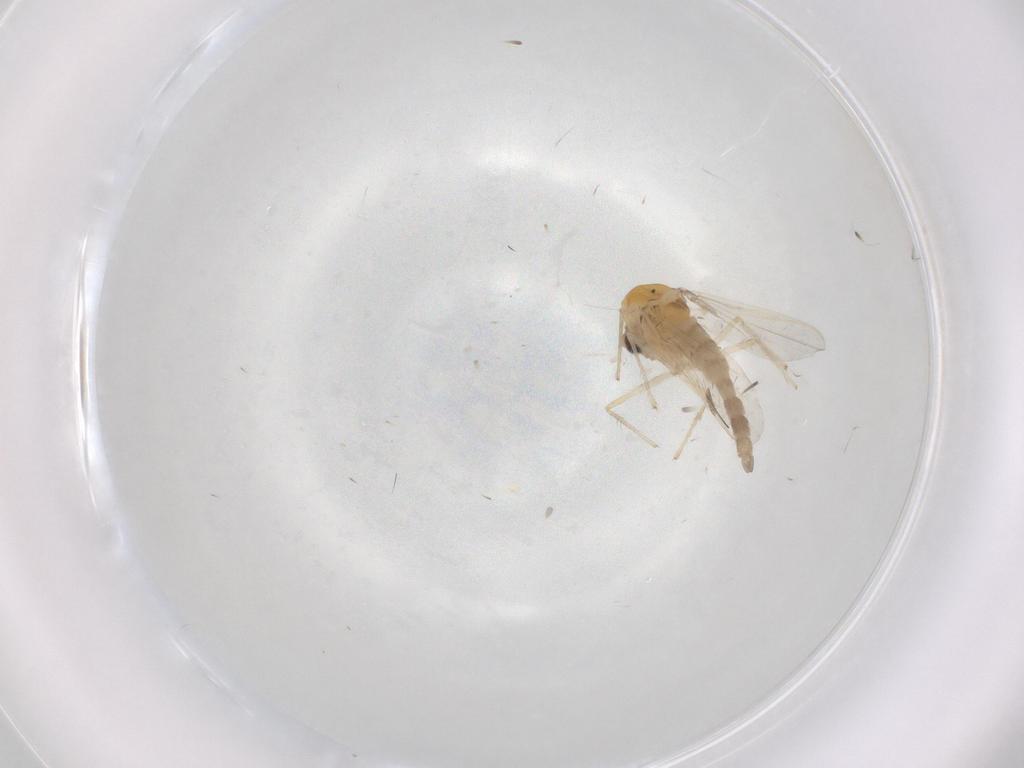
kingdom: Animalia
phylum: Arthropoda
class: Insecta
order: Diptera
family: Chironomidae
